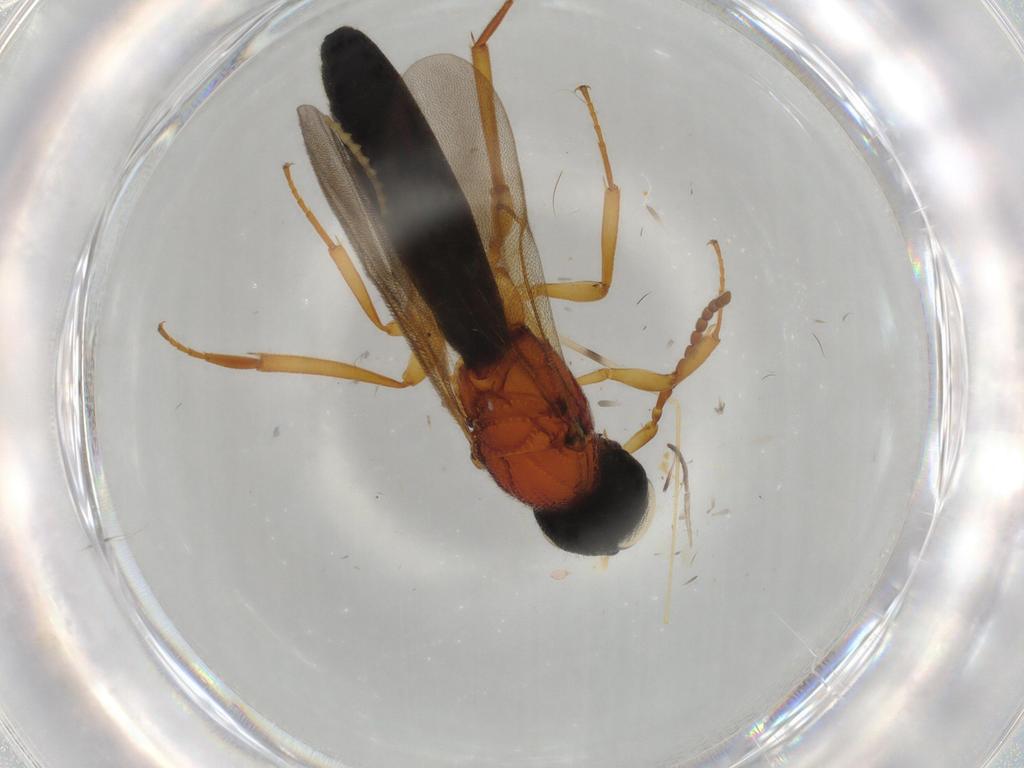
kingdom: Animalia
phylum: Arthropoda
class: Insecta
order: Hymenoptera
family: Scelionidae
